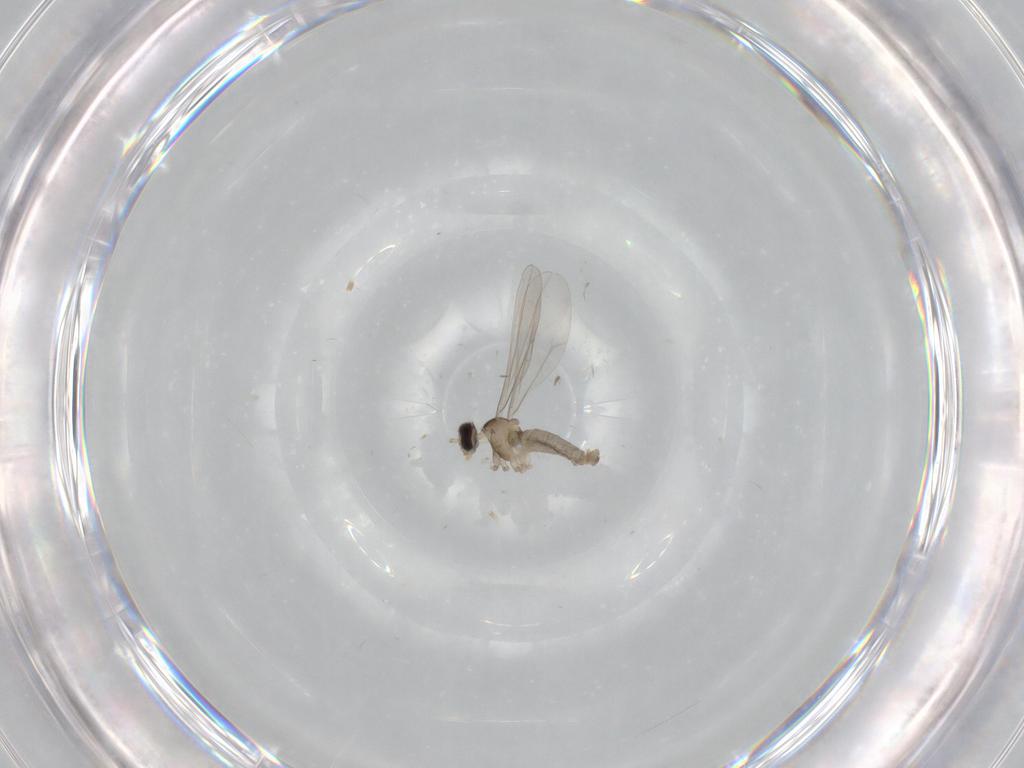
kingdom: Animalia
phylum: Arthropoda
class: Insecta
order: Diptera
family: Cecidomyiidae
